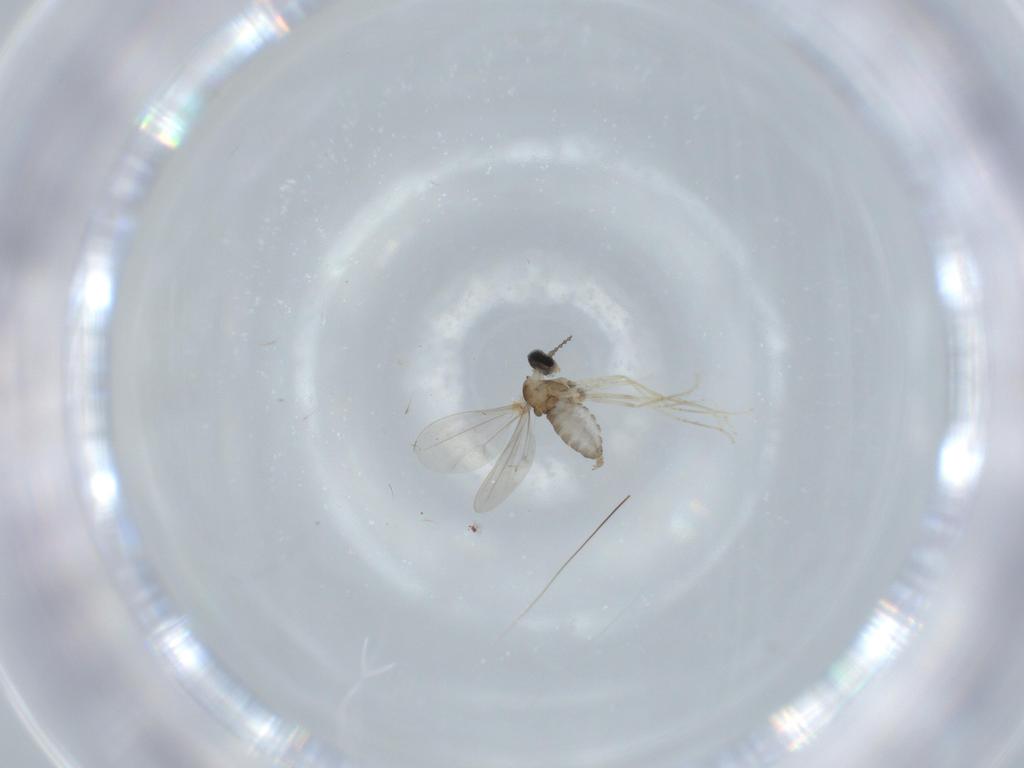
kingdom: Animalia
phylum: Arthropoda
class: Insecta
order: Diptera
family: Cecidomyiidae
